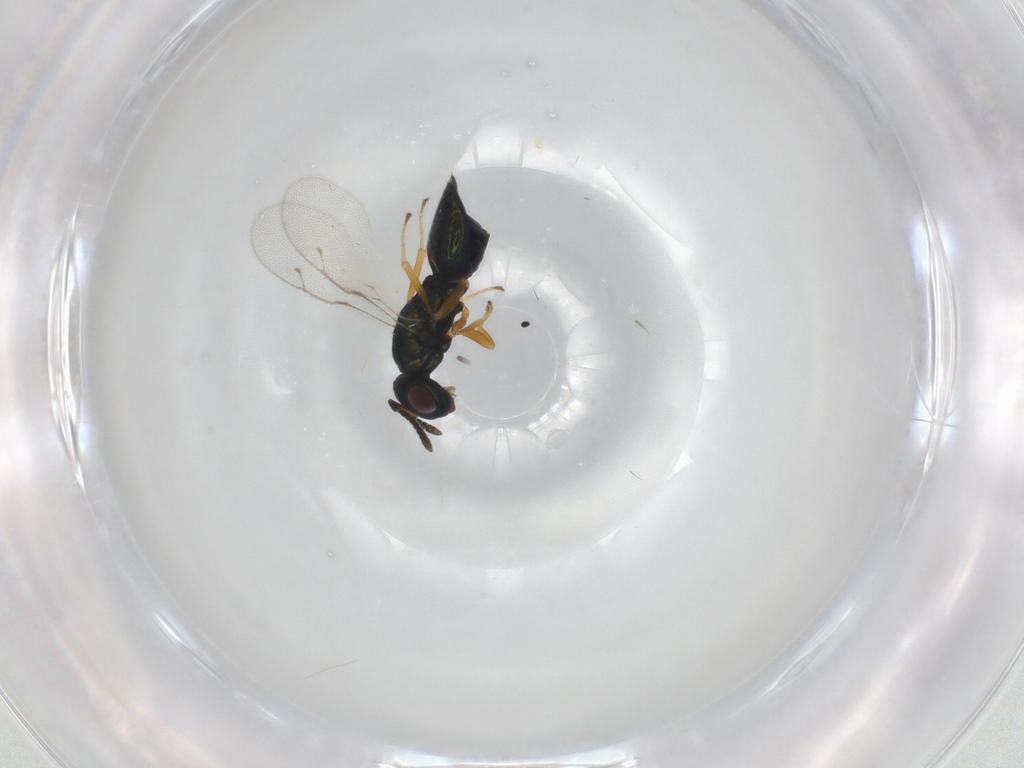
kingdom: Animalia
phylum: Arthropoda
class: Insecta
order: Hymenoptera
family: Eulophidae
